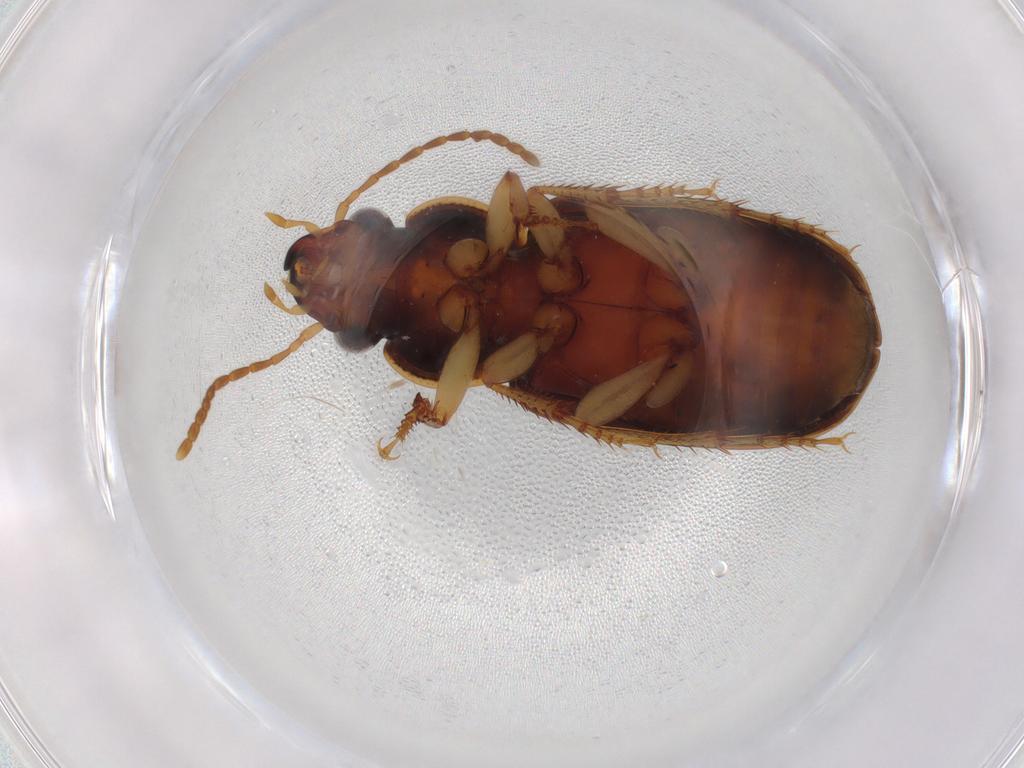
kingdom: Animalia
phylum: Arthropoda
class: Insecta
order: Coleoptera
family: Carabidae
